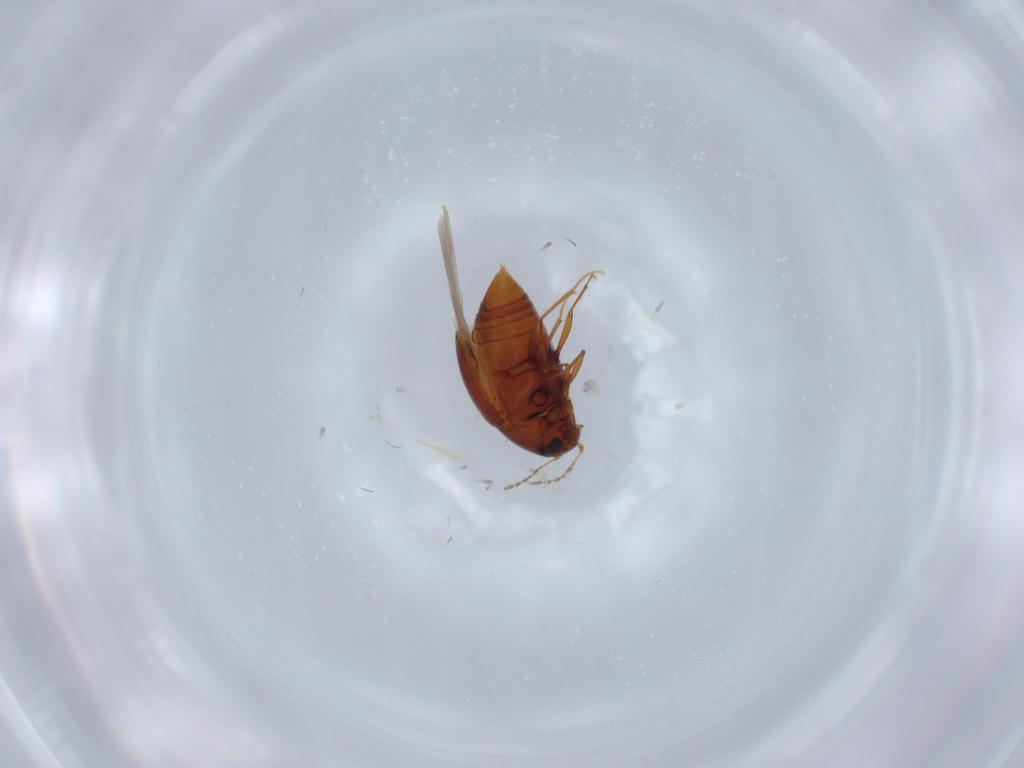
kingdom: Animalia
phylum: Arthropoda
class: Insecta
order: Coleoptera
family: Staphylinidae
